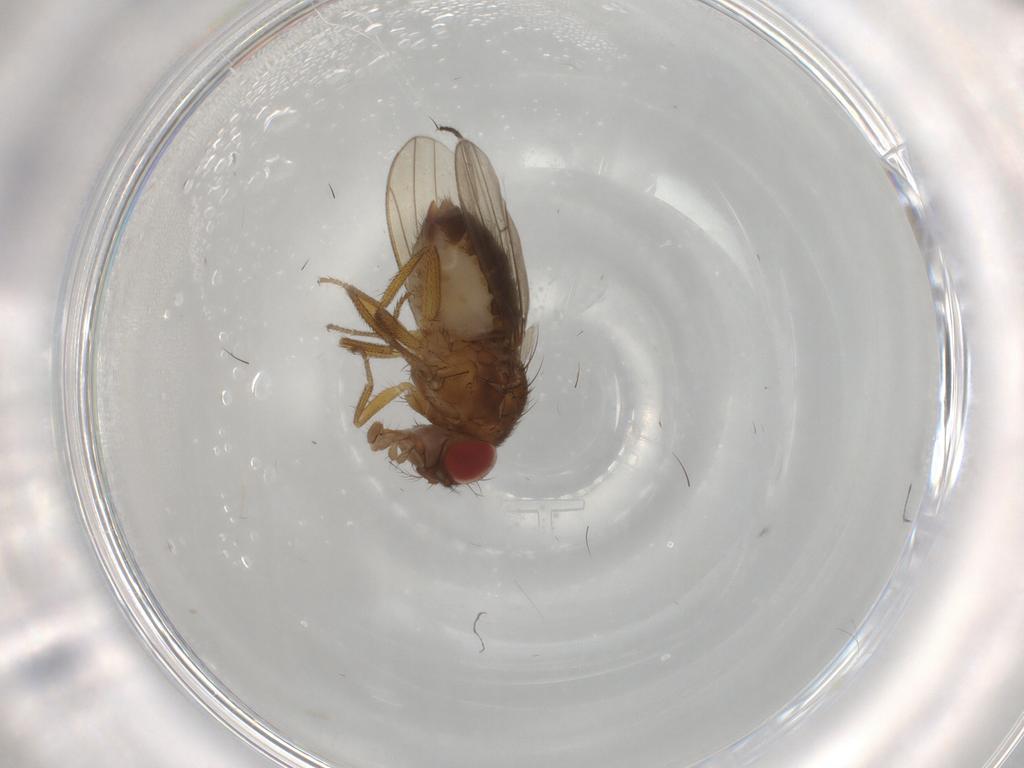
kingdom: Animalia
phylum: Arthropoda
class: Insecta
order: Diptera
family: Drosophilidae
